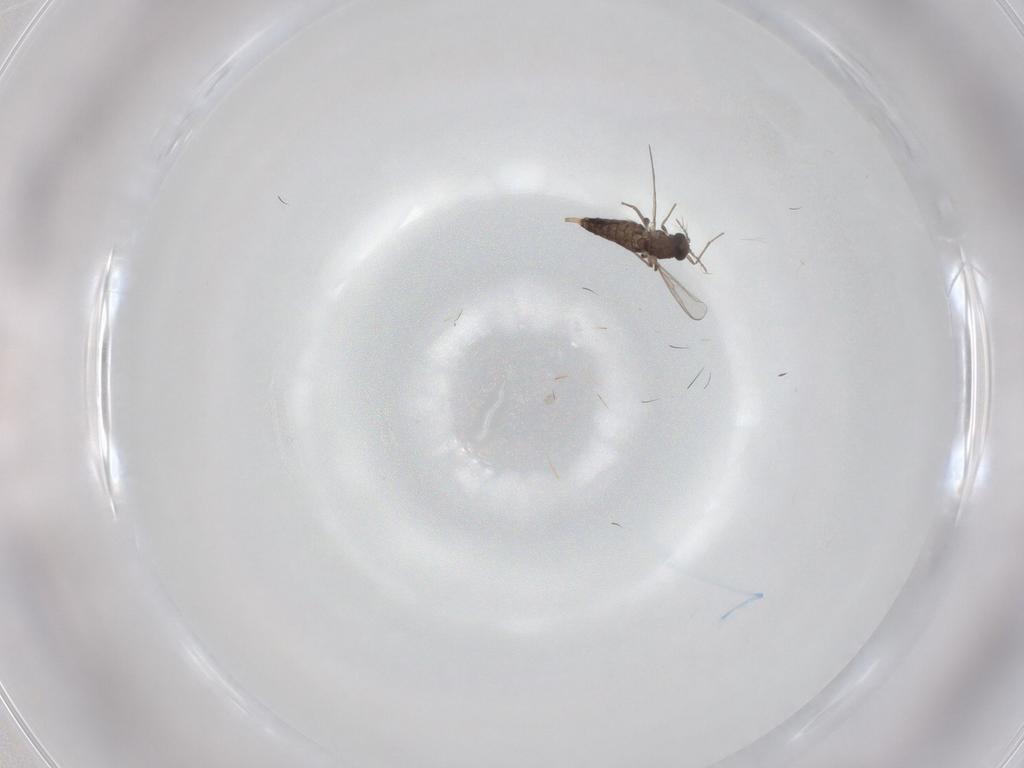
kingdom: Animalia
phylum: Arthropoda
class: Insecta
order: Diptera
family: Chironomidae
